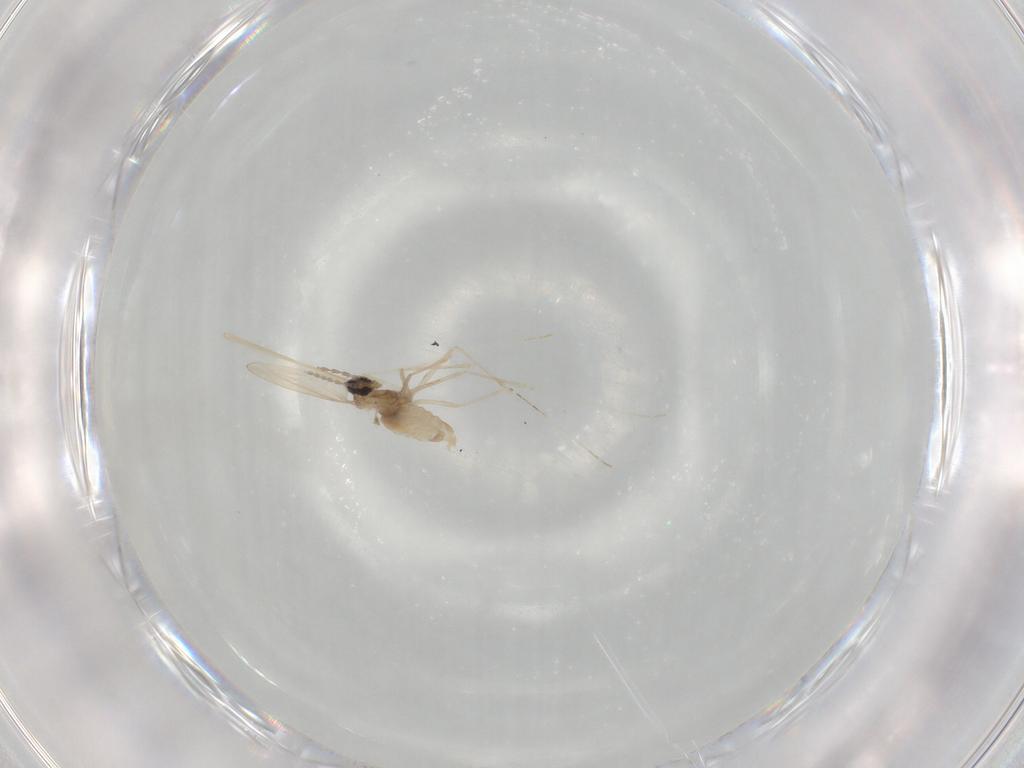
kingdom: Animalia
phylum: Arthropoda
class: Insecta
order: Diptera
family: Cecidomyiidae
